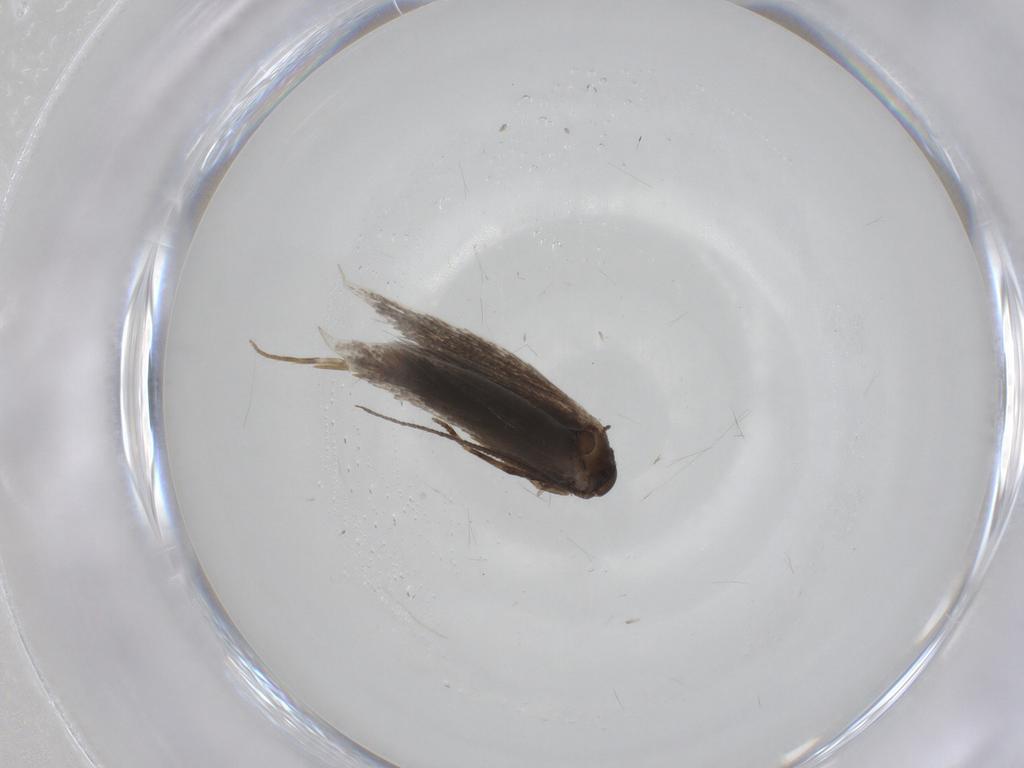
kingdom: Animalia
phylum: Arthropoda
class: Insecta
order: Lepidoptera
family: Elachistidae
